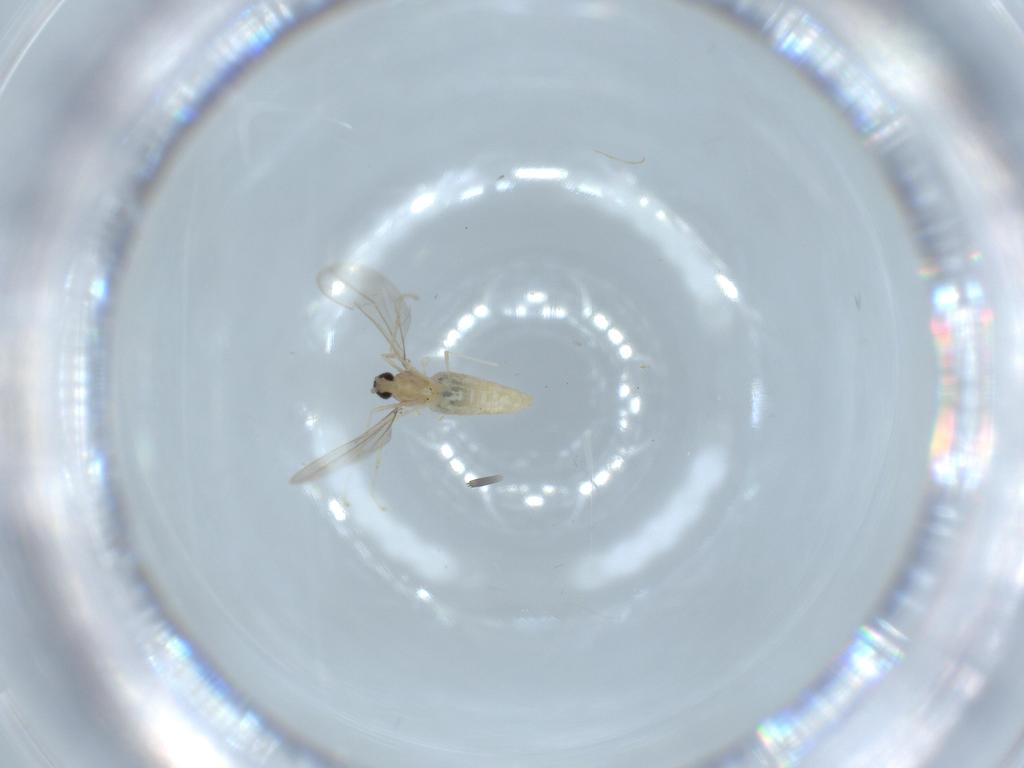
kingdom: Animalia
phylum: Arthropoda
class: Insecta
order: Diptera
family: Cecidomyiidae
